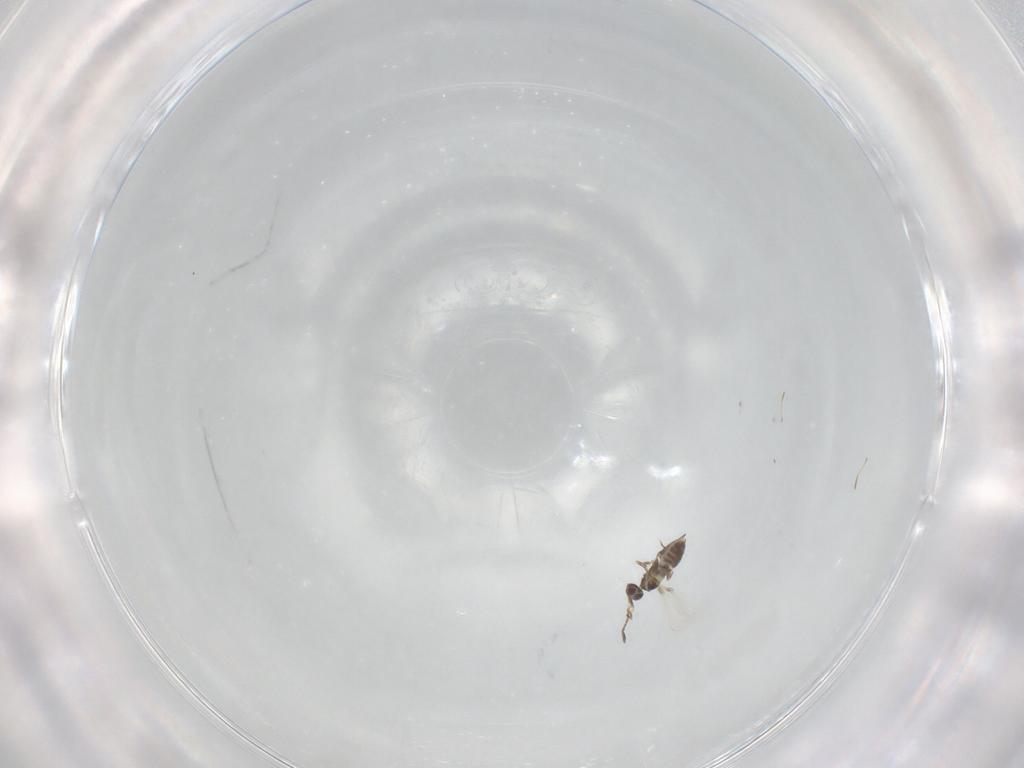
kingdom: Animalia
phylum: Arthropoda
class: Insecta
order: Hymenoptera
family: Mymaridae
